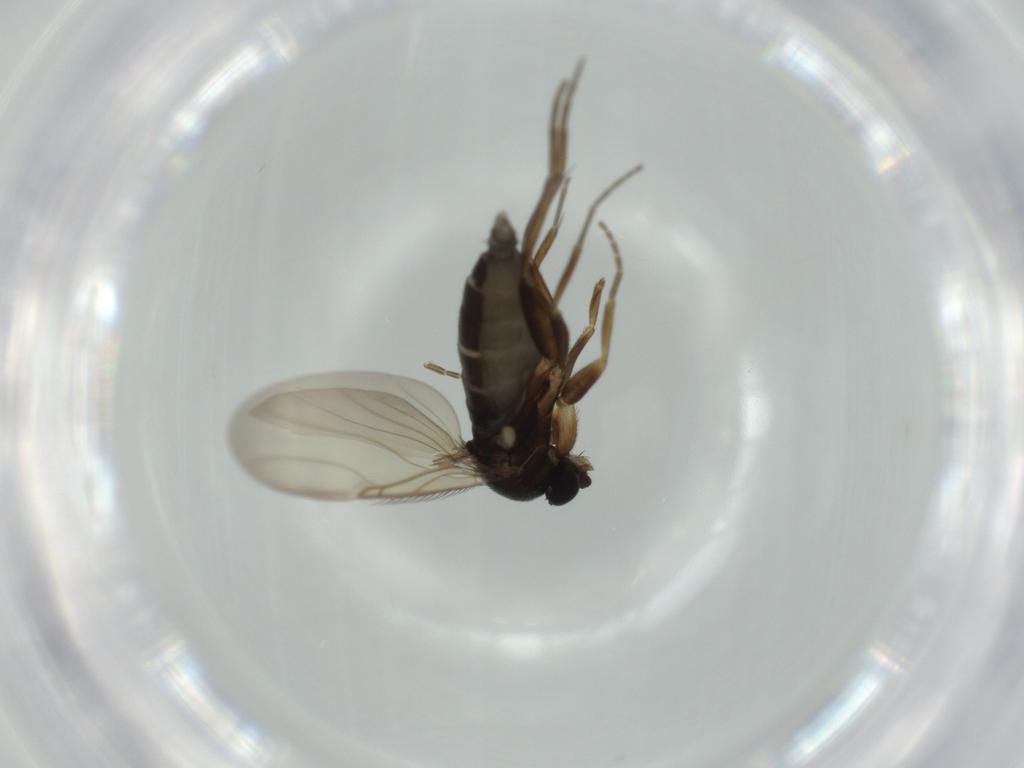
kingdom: Animalia
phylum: Arthropoda
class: Insecta
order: Diptera
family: Phoridae
